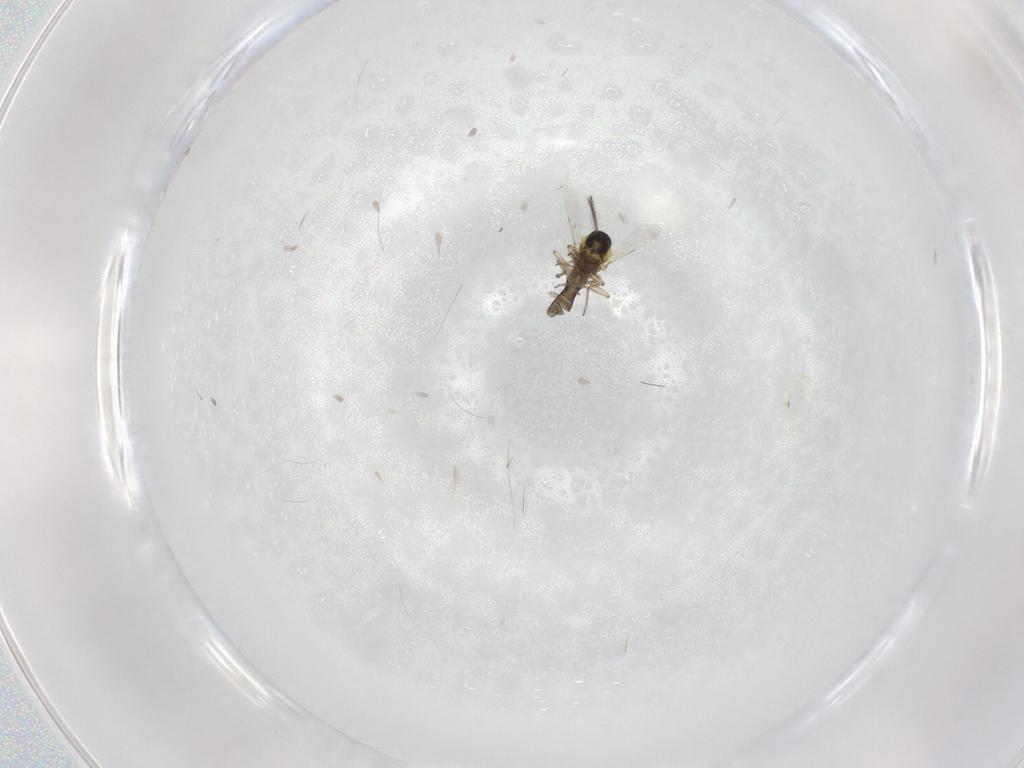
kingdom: Animalia
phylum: Arthropoda
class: Insecta
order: Diptera
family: Ceratopogonidae
